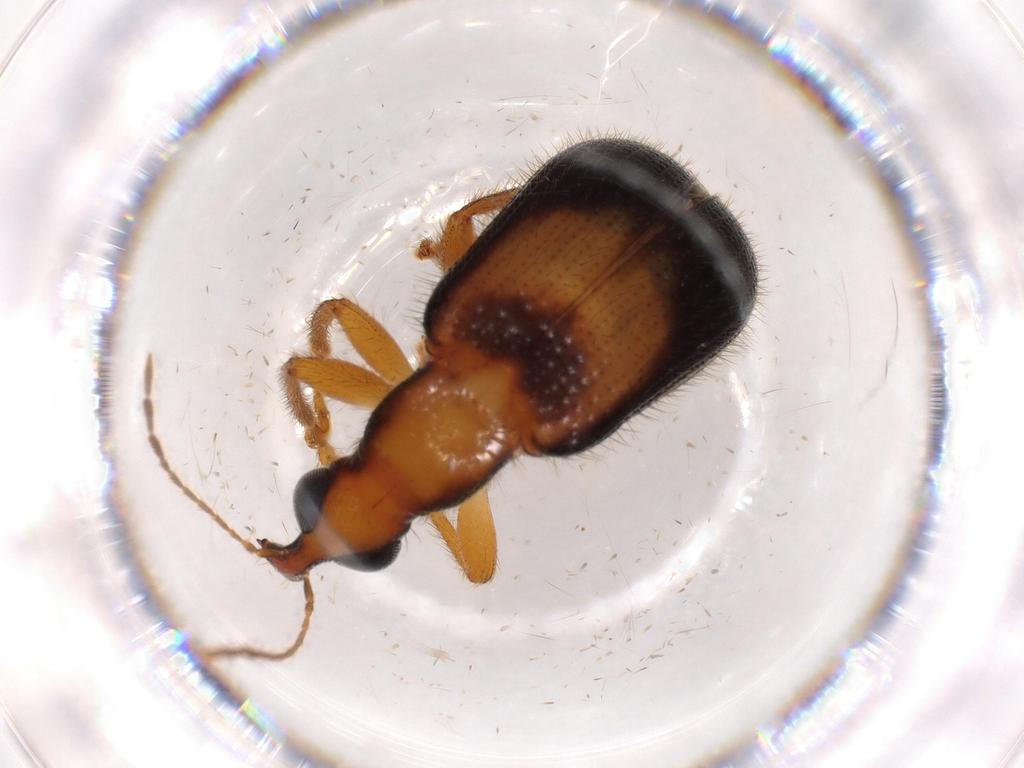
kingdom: Animalia
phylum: Arthropoda
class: Insecta
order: Coleoptera
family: Attelabidae
